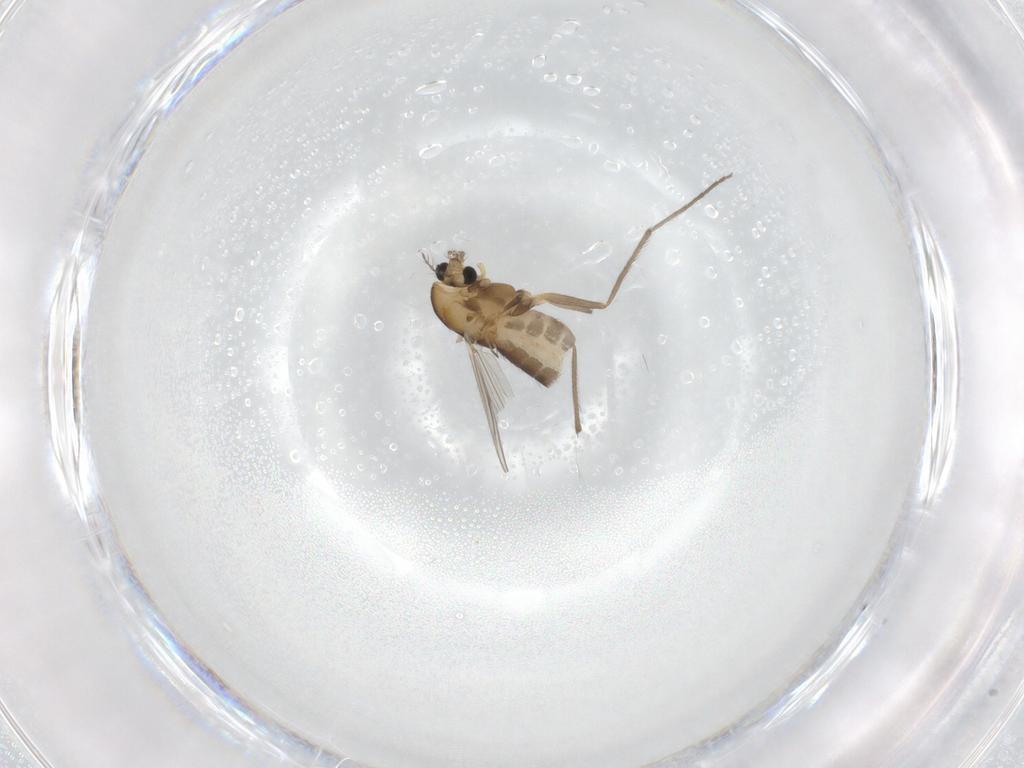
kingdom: Animalia
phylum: Arthropoda
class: Insecta
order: Diptera
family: Chironomidae
